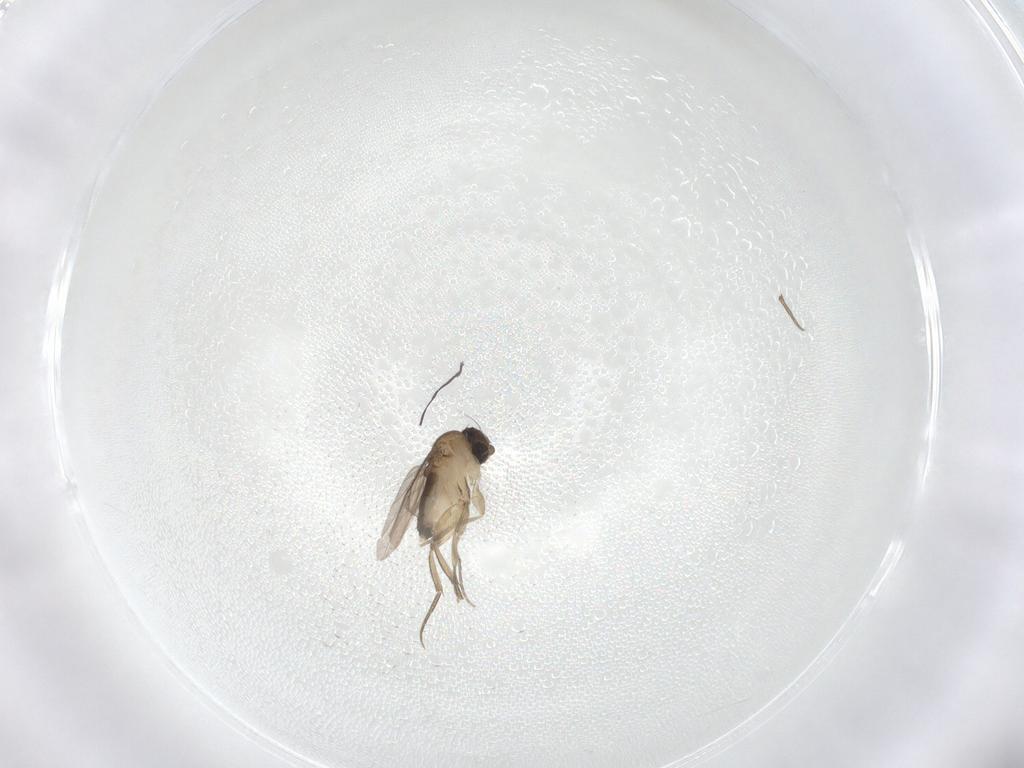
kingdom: Animalia
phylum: Arthropoda
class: Insecta
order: Diptera
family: Phoridae
